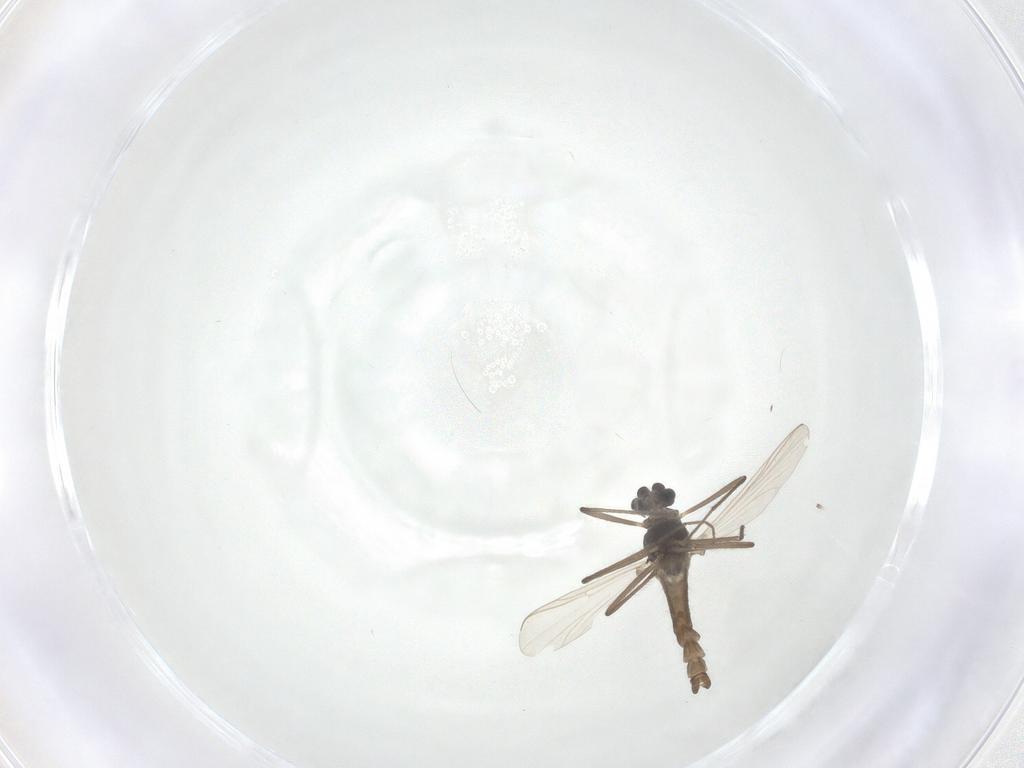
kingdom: Animalia
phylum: Arthropoda
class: Insecta
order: Diptera
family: Chironomidae
